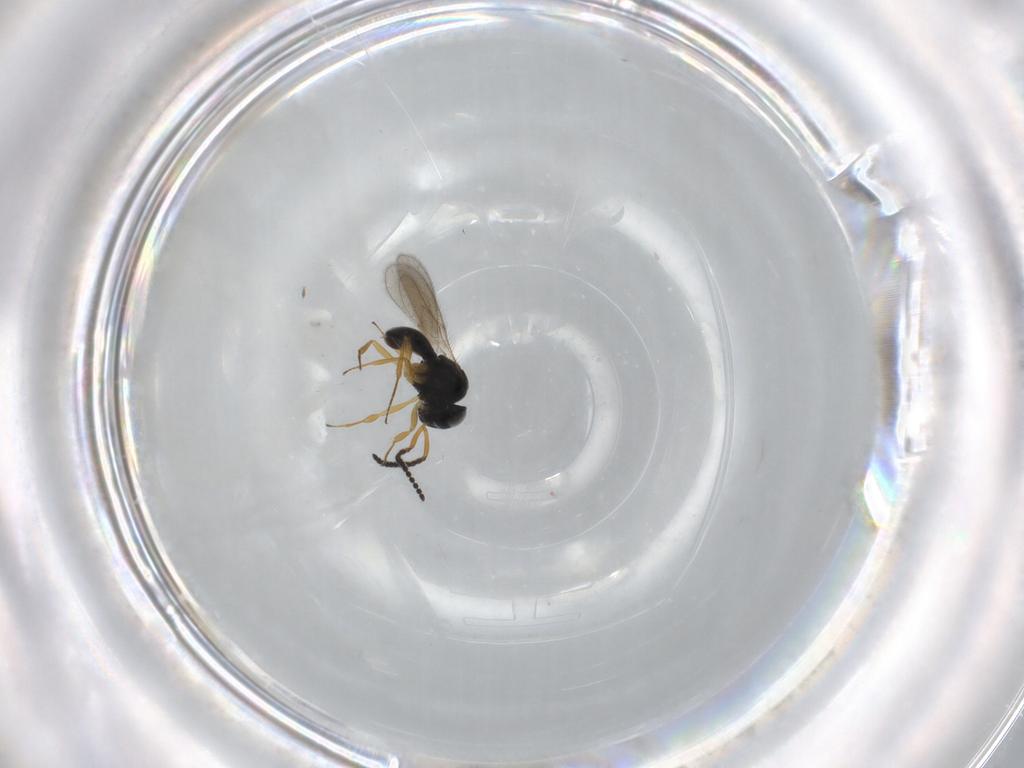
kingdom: Animalia
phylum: Arthropoda
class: Insecta
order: Hymenoptera
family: Scelionidae
